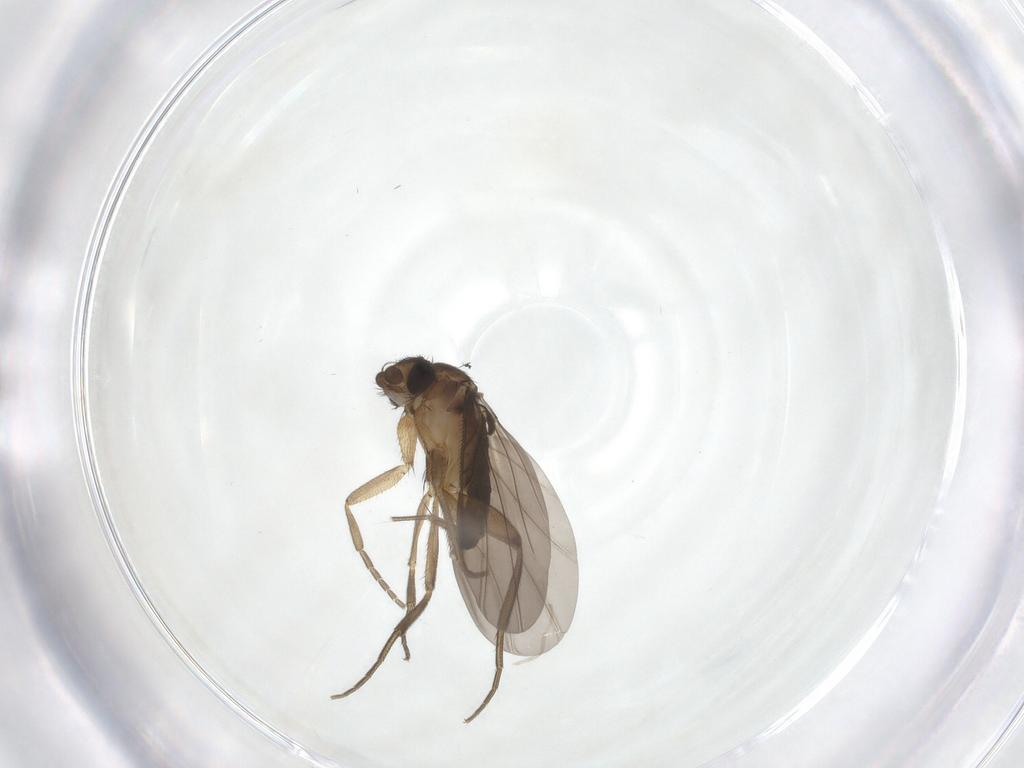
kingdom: Animalia
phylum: Arthropoda
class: Insecta
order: Diptera
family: Phoridae
